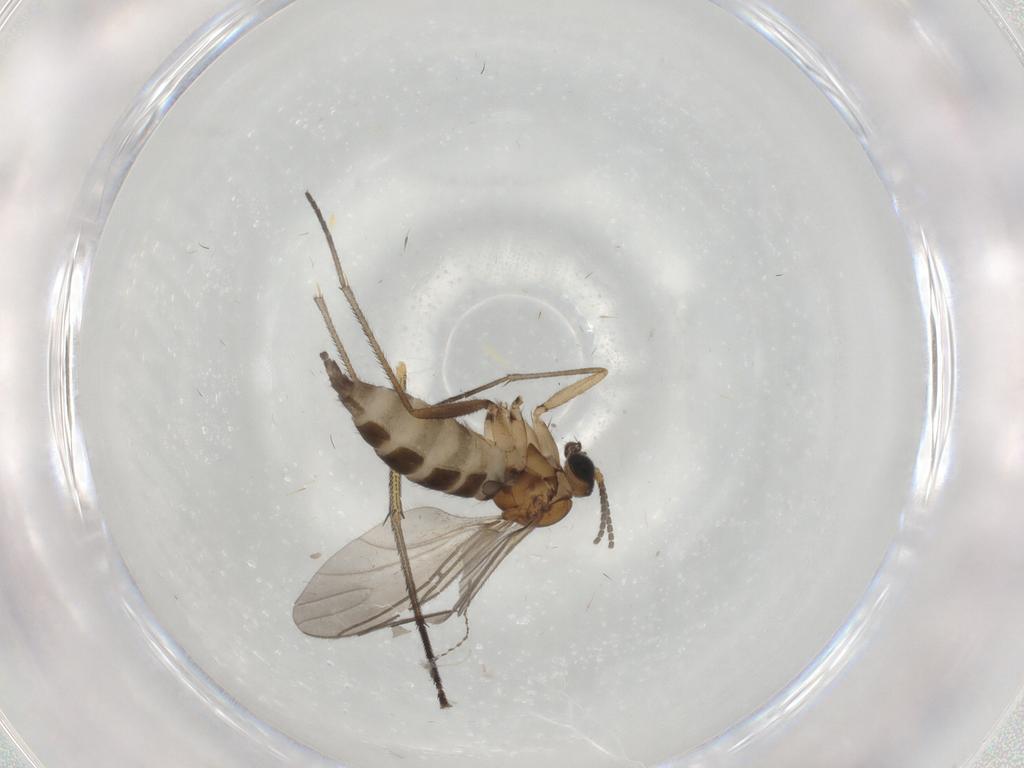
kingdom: Animalia
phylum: Arthropoda
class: Insecta
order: Diptera
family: Sciaridae
